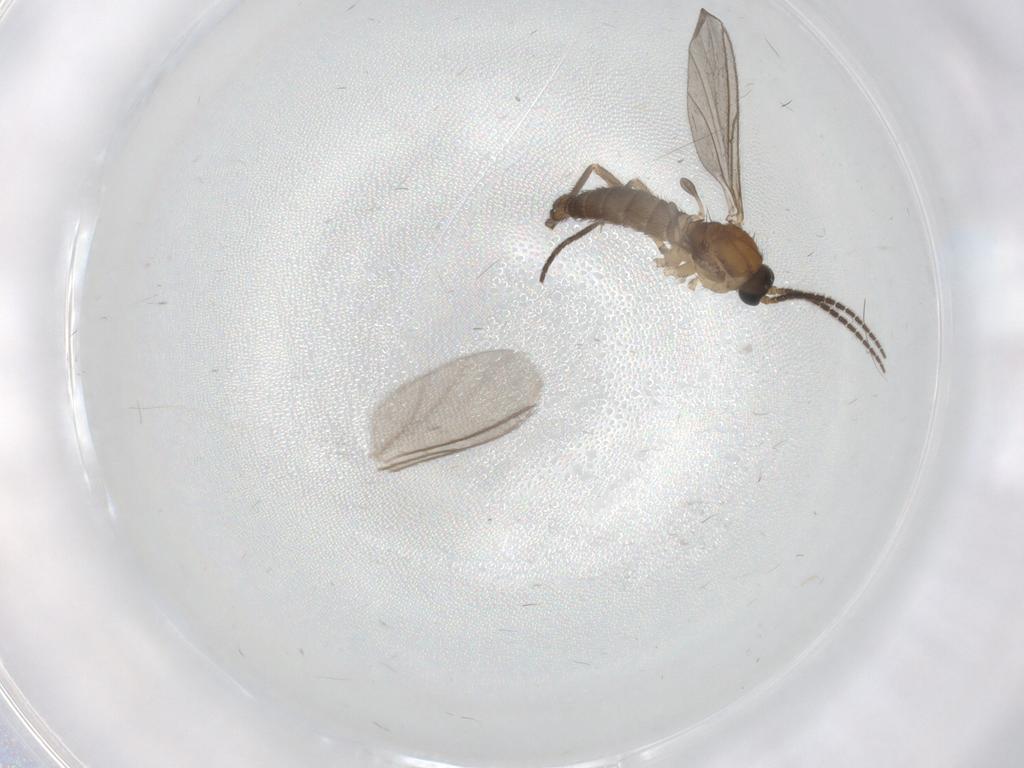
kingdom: Animalia
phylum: Arthropoda
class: Insecta
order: Diptera
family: Sciaridae
